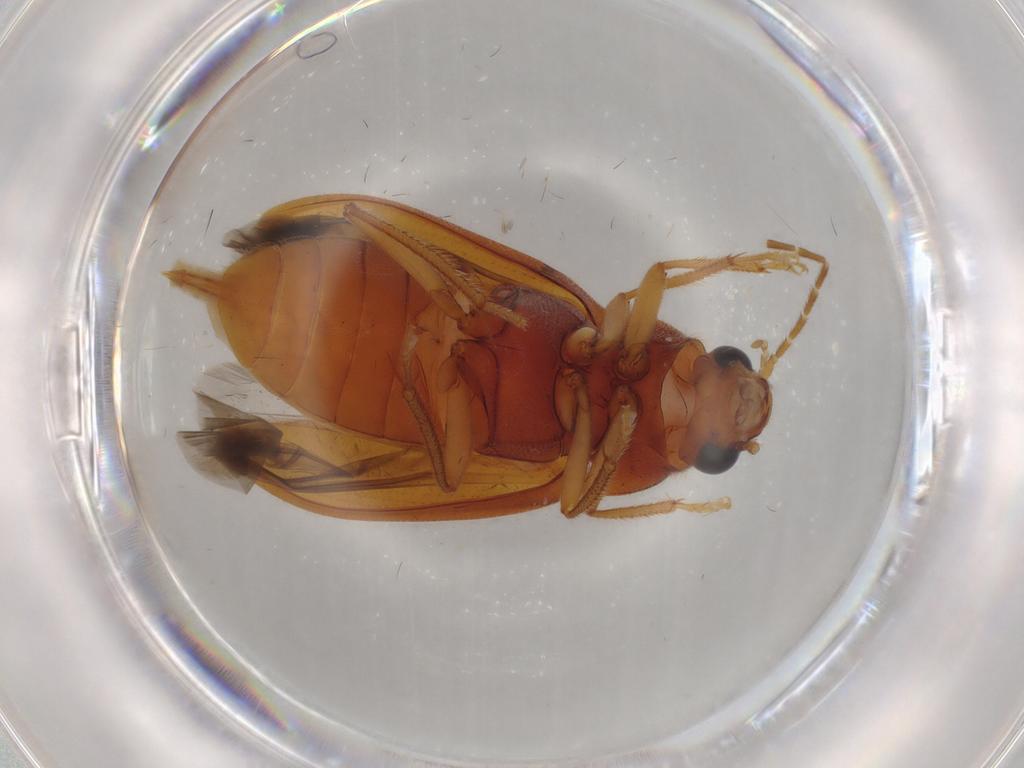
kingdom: Animalia
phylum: Arthropoda
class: Insecta
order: Coleoptera
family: Ptilodactylidae
